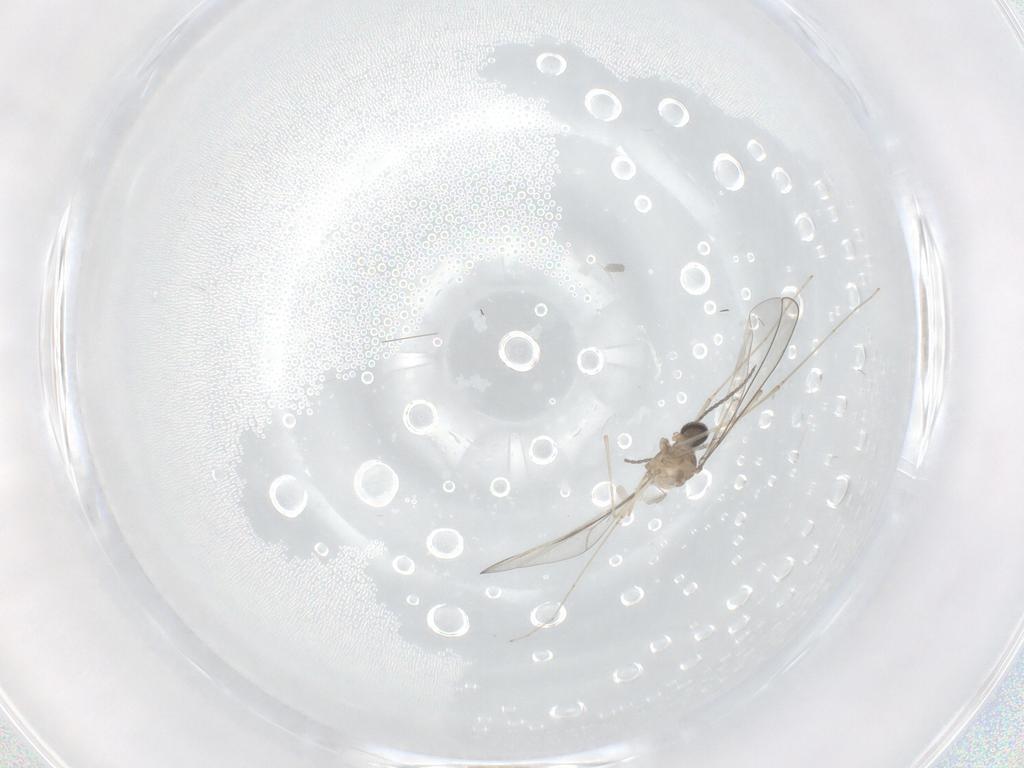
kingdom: Animalia
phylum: Arthropoda
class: Insecta
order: Diptera
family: Cecidomyiidae
